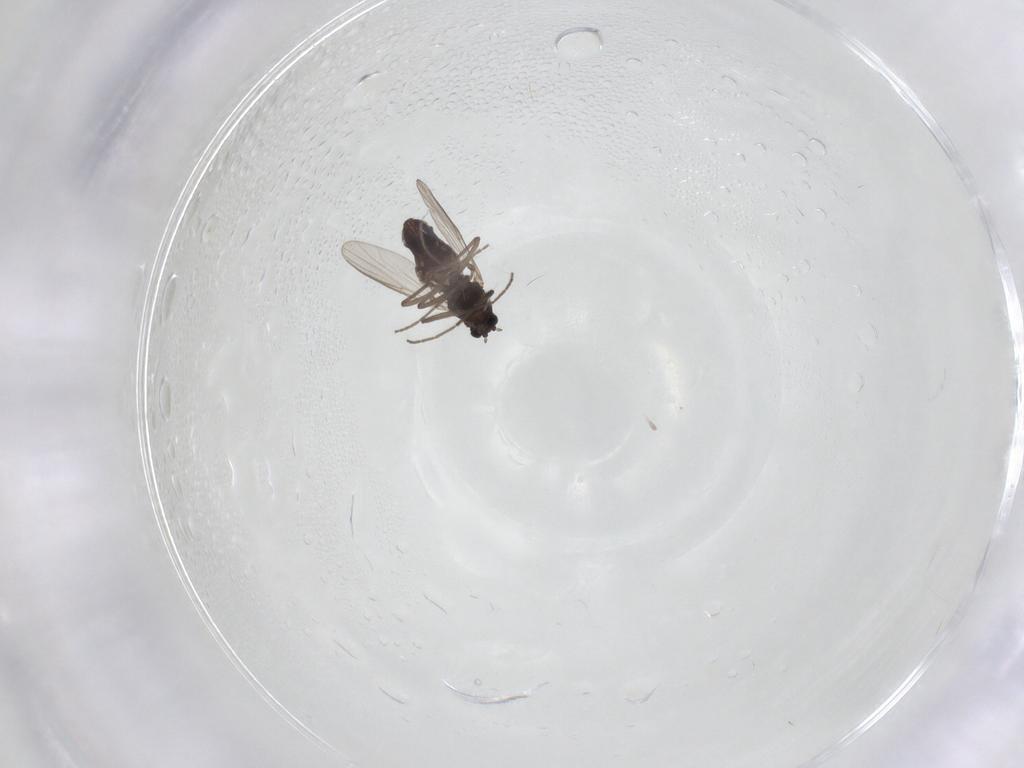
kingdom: Animalia
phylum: Arthropoda
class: Insecta
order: Diptera
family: Chironomidae
